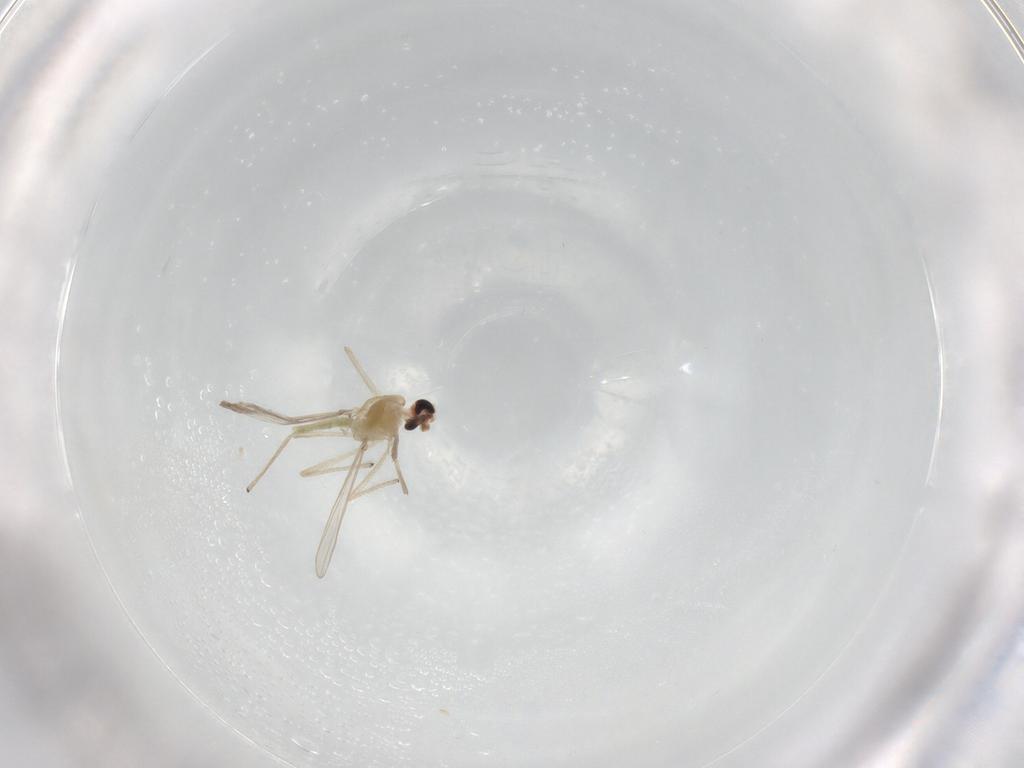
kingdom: Animalia
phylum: Arthropoda
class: Insecta
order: Diptera
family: Chironomidae
